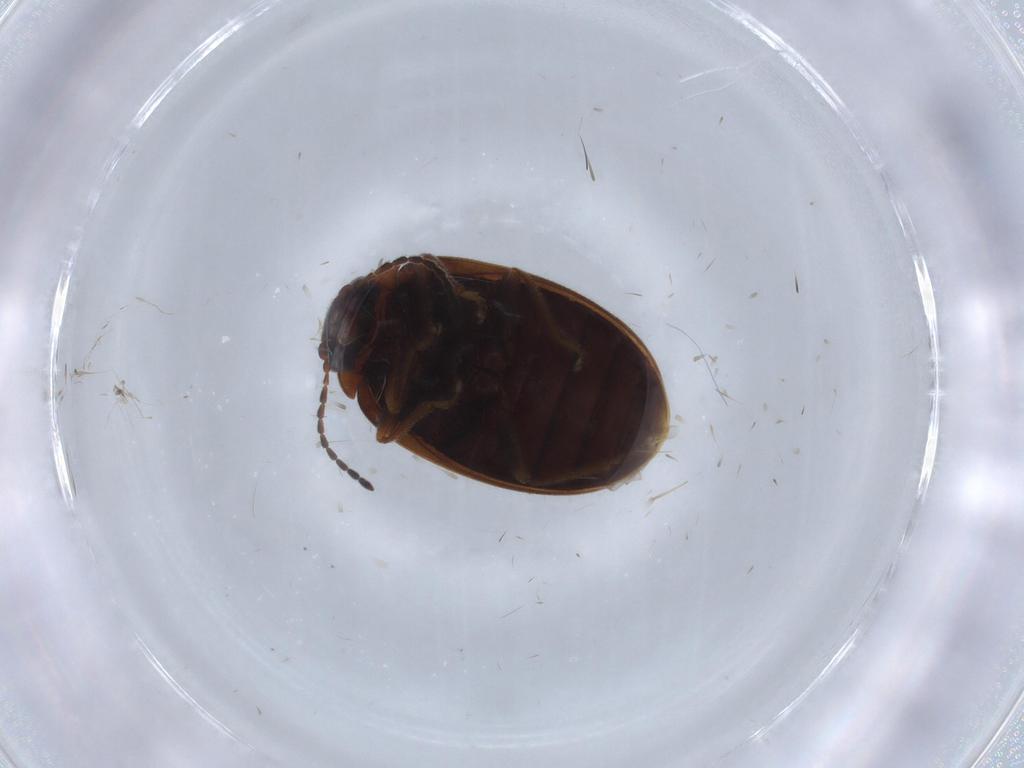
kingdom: Animalia
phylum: Arthropoda
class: Insecta
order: Coleoptera
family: Scirtidae
